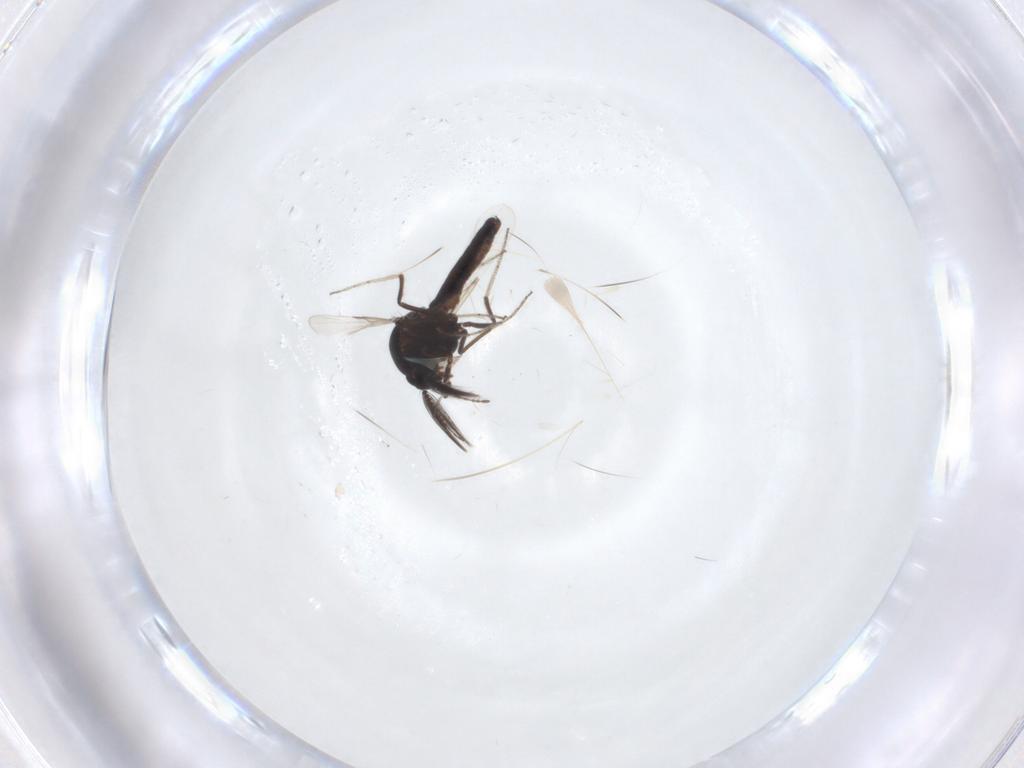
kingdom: Animalia
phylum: Arthropoda
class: Insecta
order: Diptera
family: Ceratopogonidae
